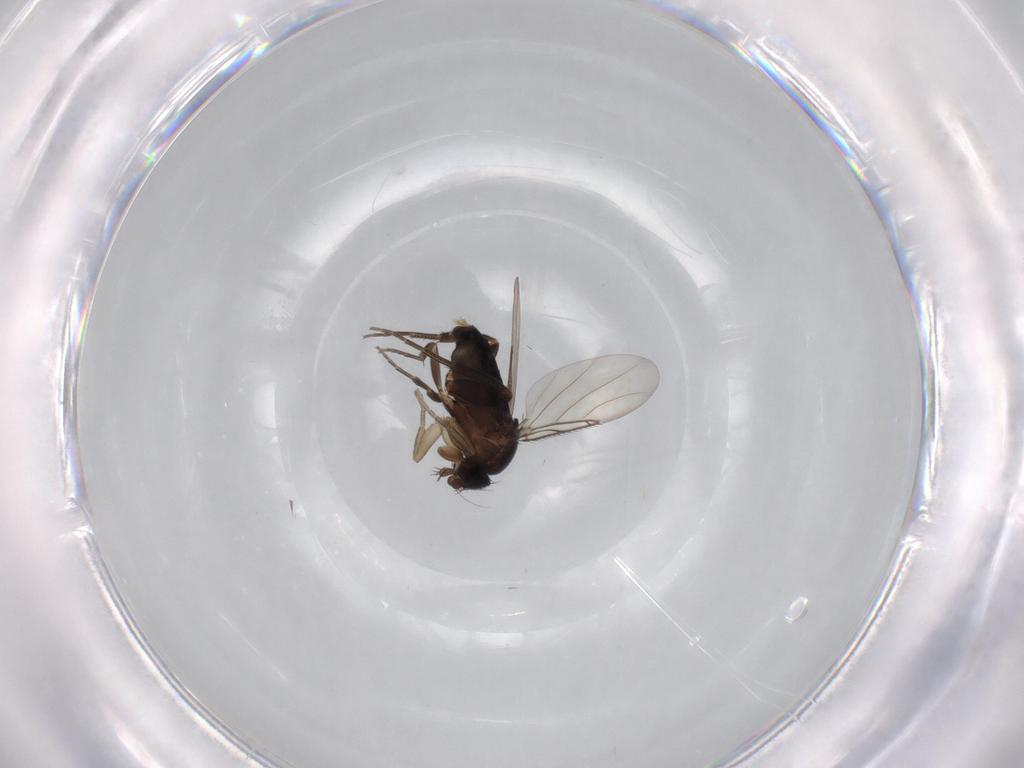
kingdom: Animalia
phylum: Arthropoda
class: Insecta
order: Diptera
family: Phoridae
